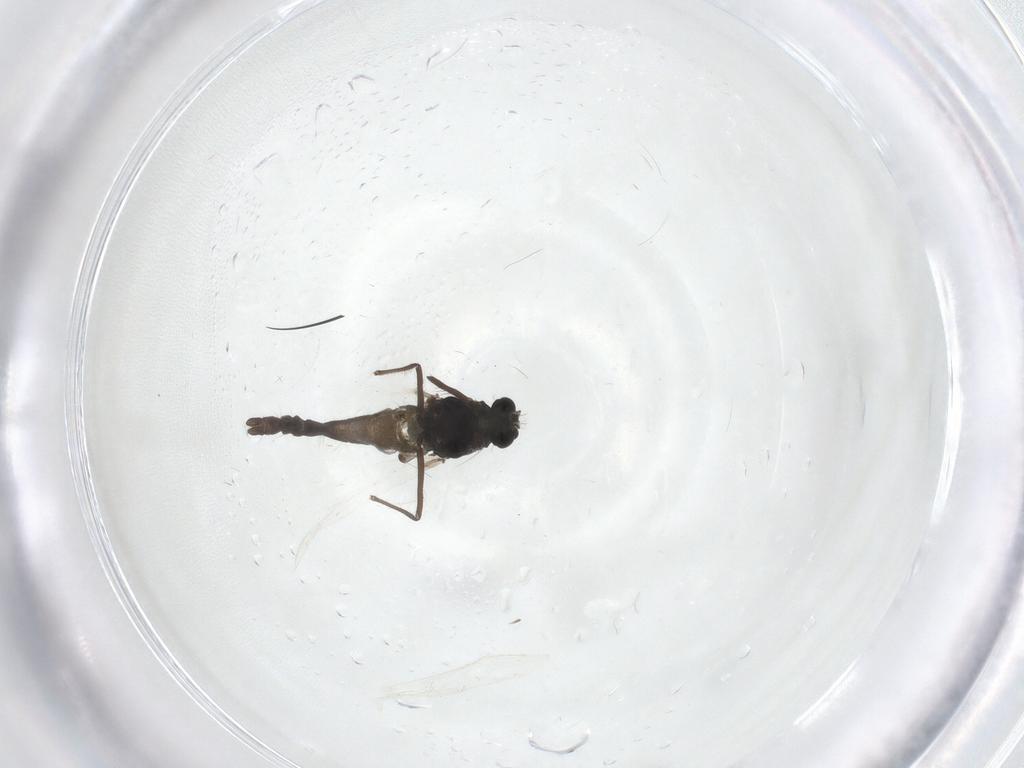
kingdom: Animalia
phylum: Arthropoda
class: Insecta
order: Diptera
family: Chironomidae
